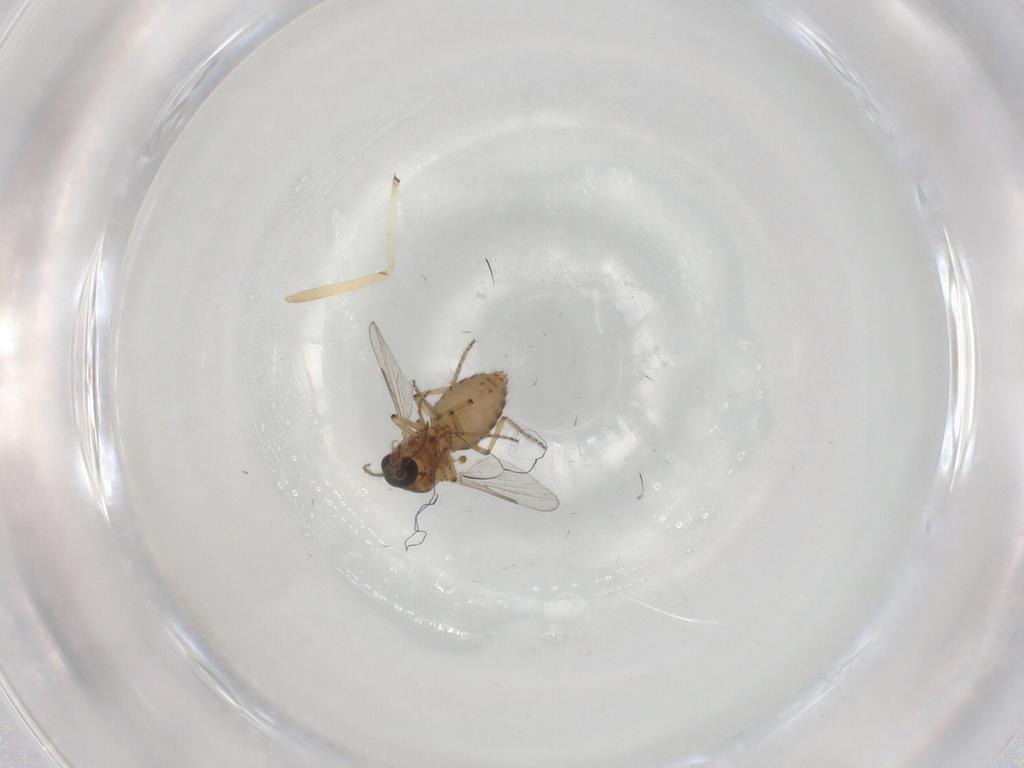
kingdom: Animalia
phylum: Arthropoda
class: Insecta
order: Diptera
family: Ceratopogonidae
